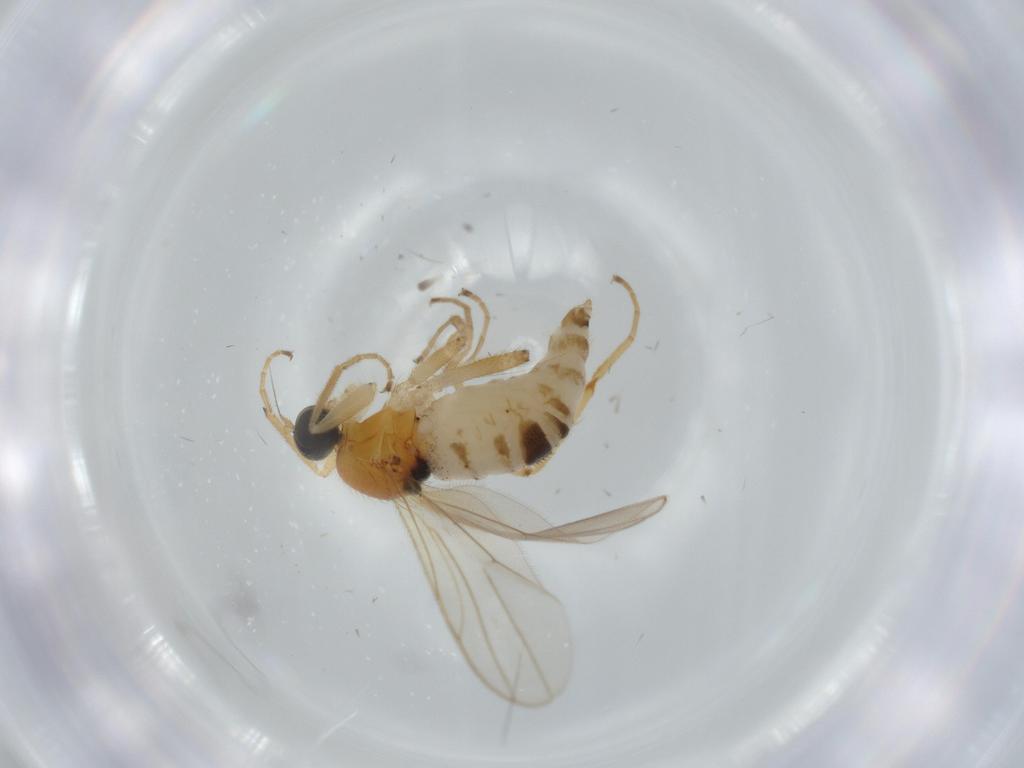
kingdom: Animalia
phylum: Arthropoda
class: Insecta
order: Diptera
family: Hybotidae
